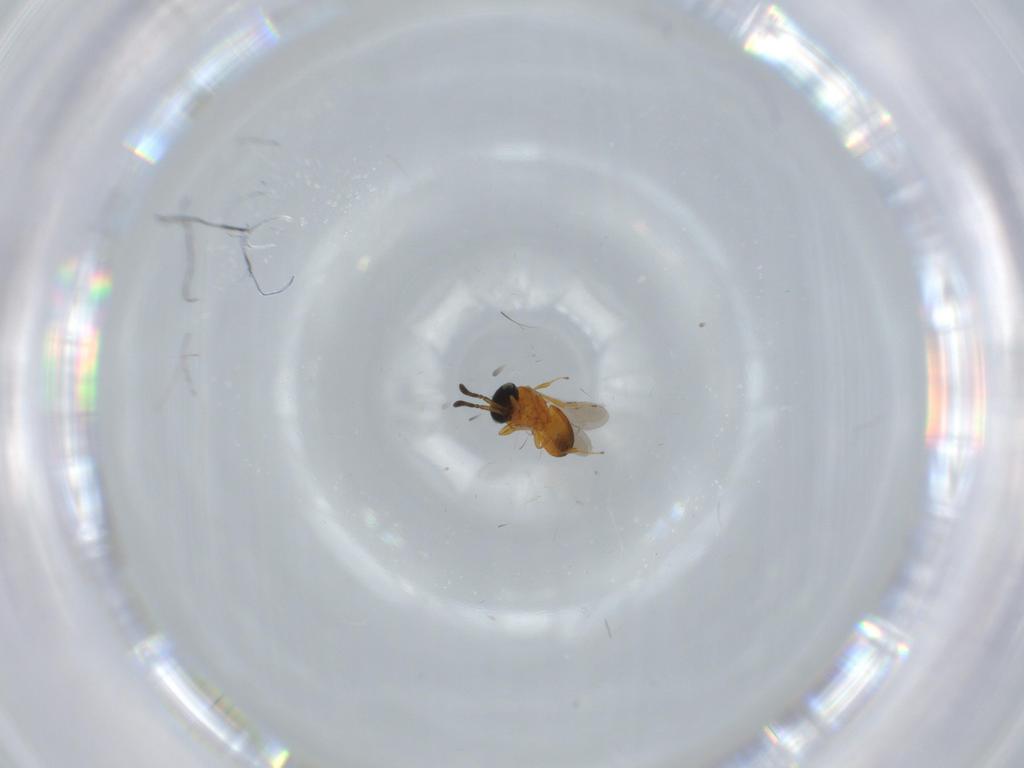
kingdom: Animalia
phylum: Arthropoda
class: Insecta
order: Hymenoptera
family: Scelionidae
